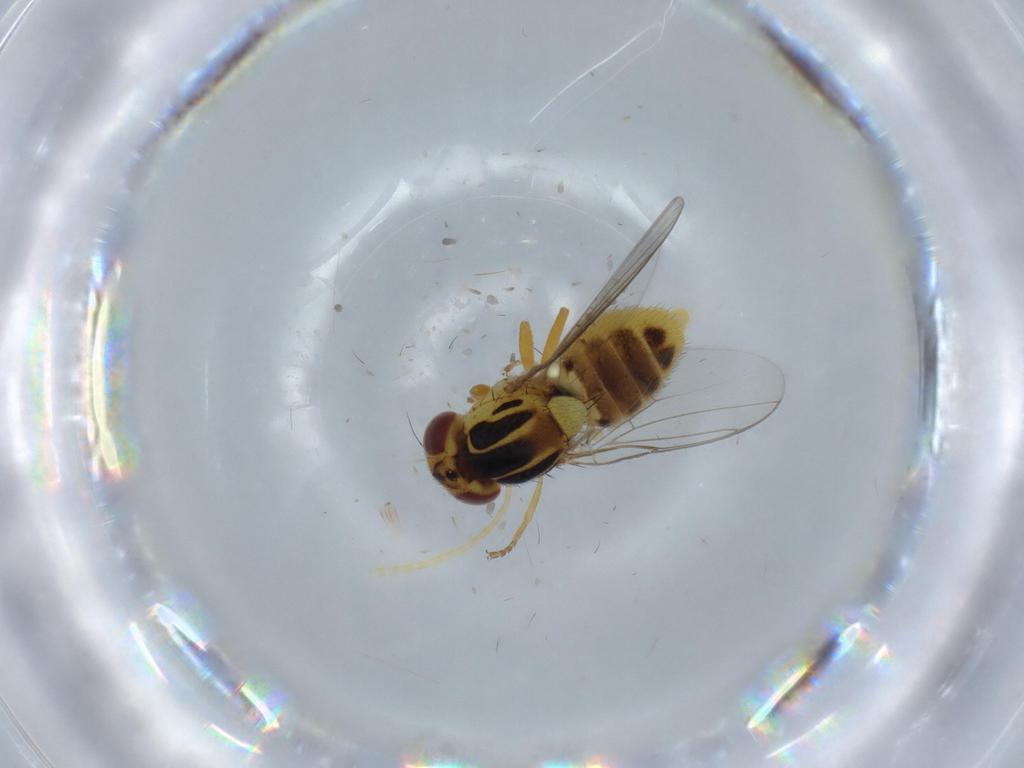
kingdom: Animalia
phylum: Arthropoda
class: Insecta
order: Diptera
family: Chloropidae
